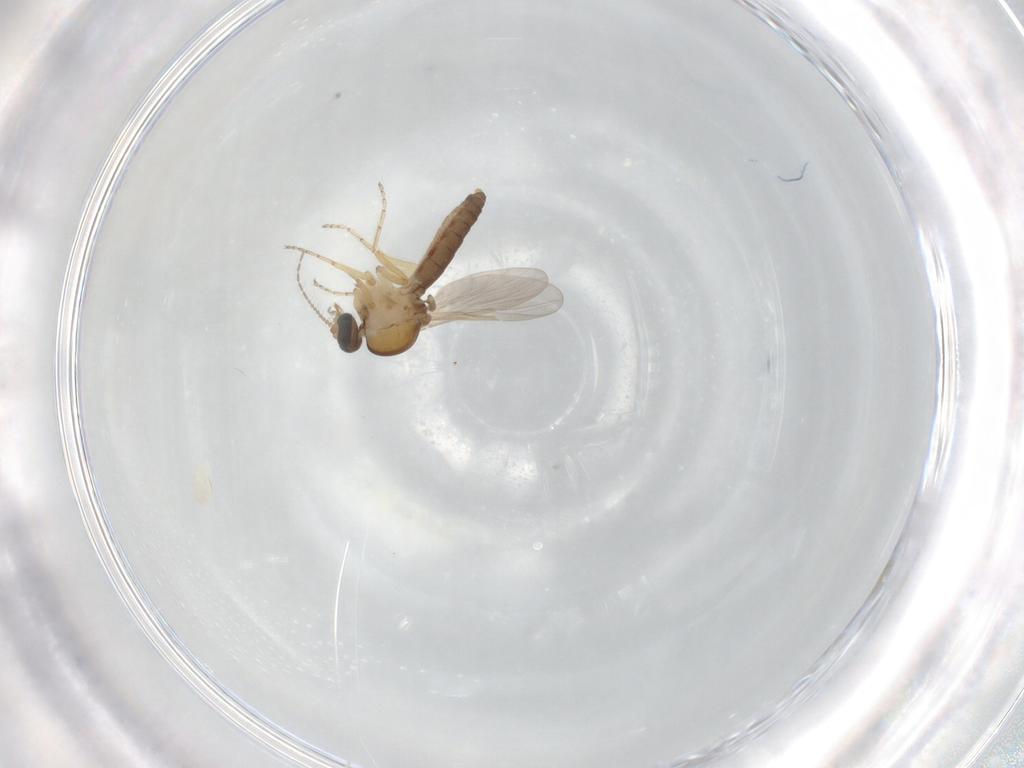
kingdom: Animalia
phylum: Arthropoda
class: Insecta
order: Diptera
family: Ceratopogonidae
